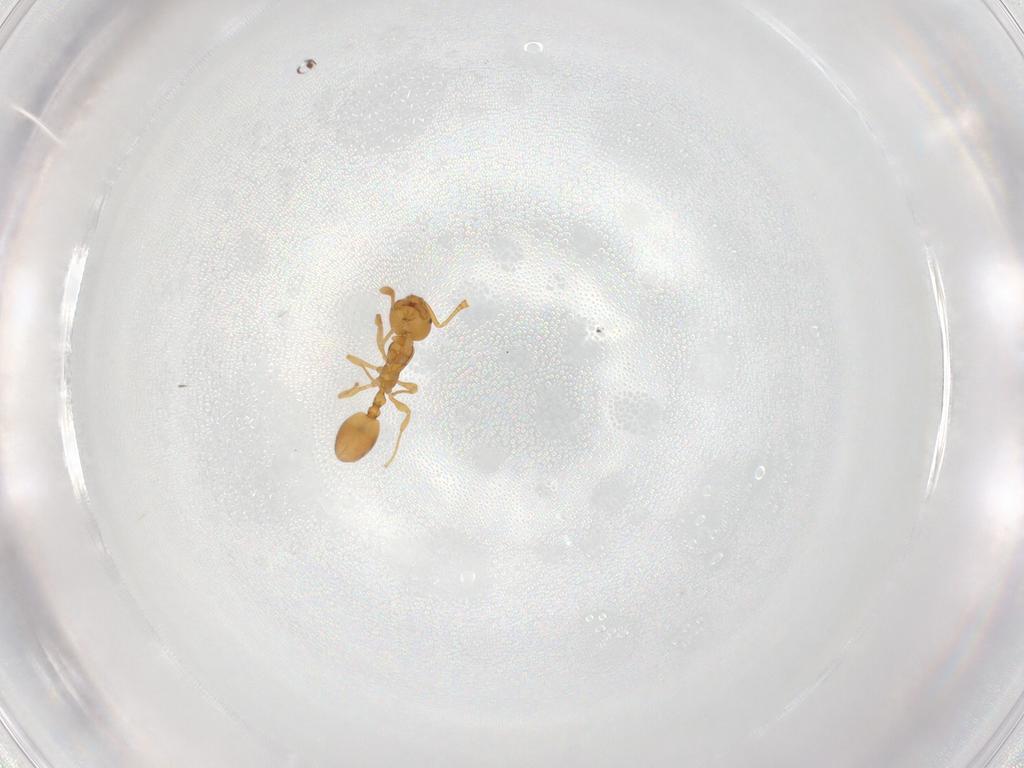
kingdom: Animalia
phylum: Arthropoda
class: Insecta
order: Hymenoptera
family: Formicidae
